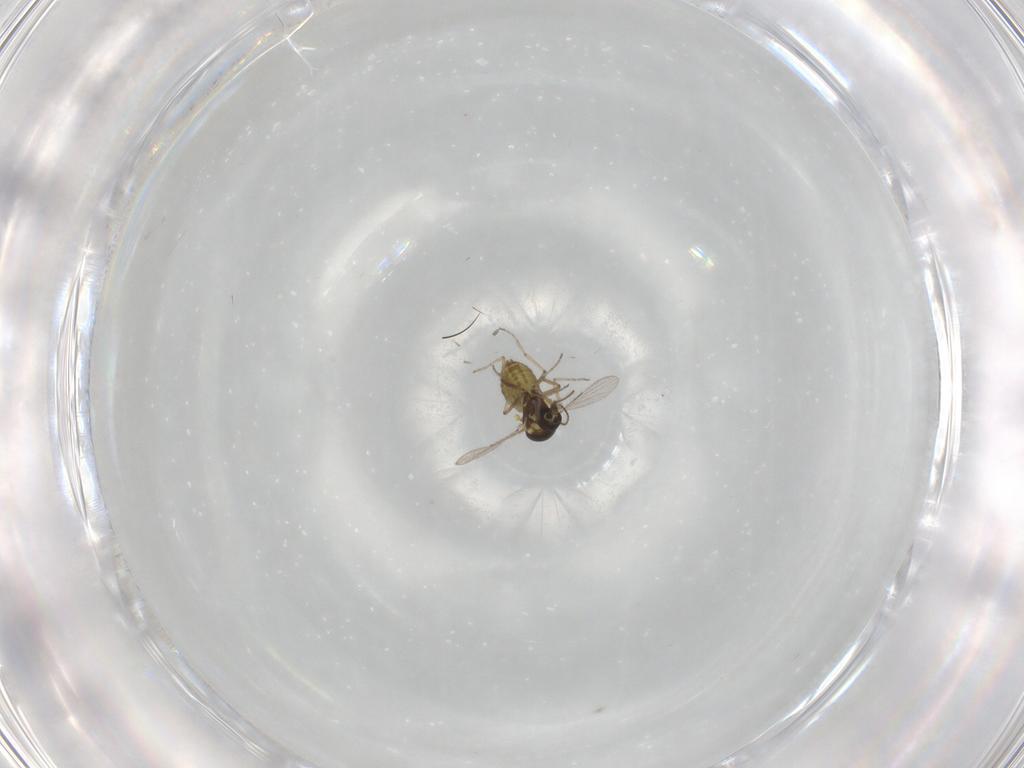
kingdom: Animalia
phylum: Arthropoda
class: Insecta
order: Diptera
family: Ceratopogonidae
